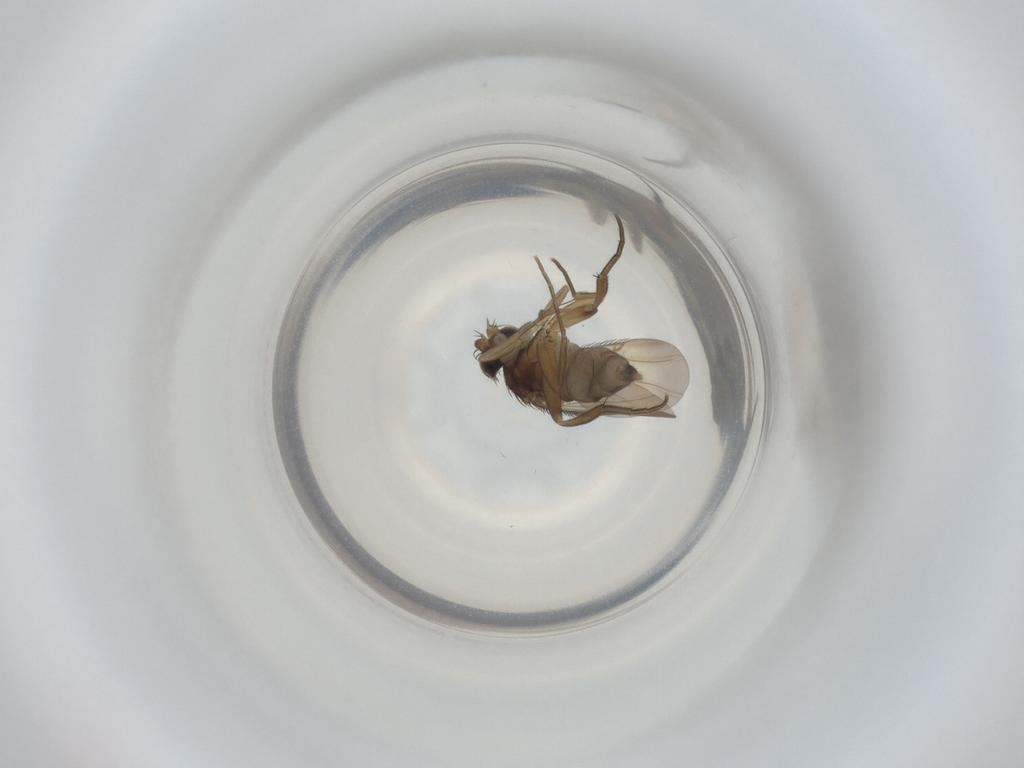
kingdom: Animalia
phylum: Arthropoda
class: Insecta
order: Diptera
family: Phoridae
